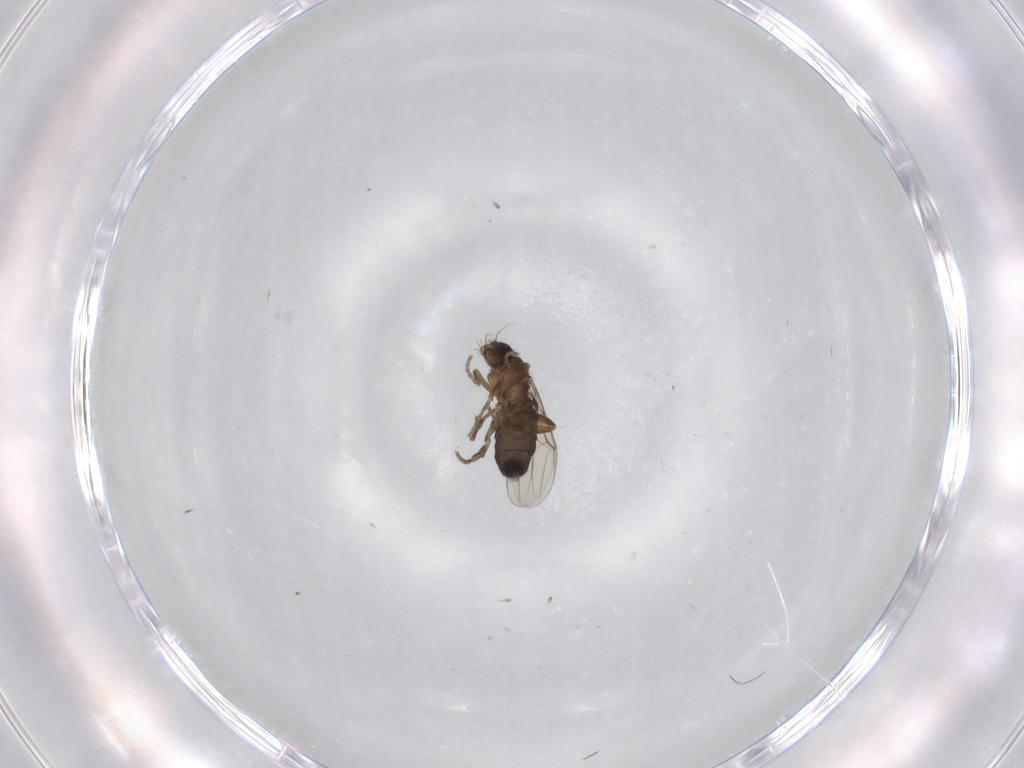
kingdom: Animalia
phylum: Arthropoda
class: Insecta
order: Diptera
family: Phoridae
